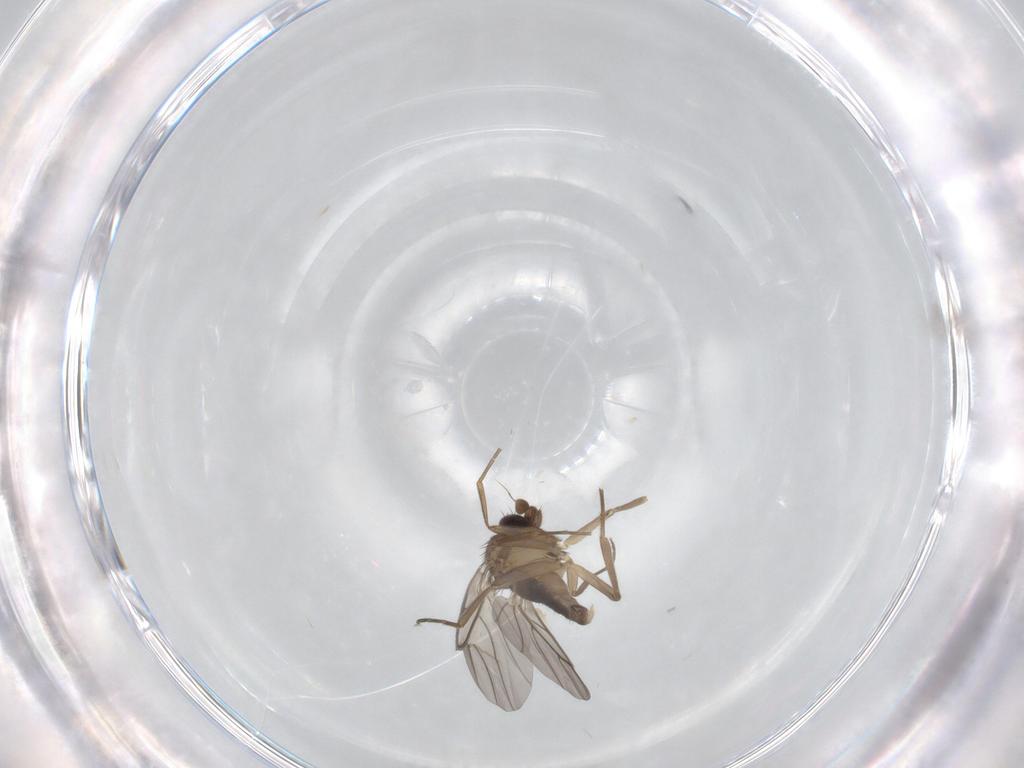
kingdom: Animalia
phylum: Arthropoda
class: Insecta
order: Diptera
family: Phoridae
